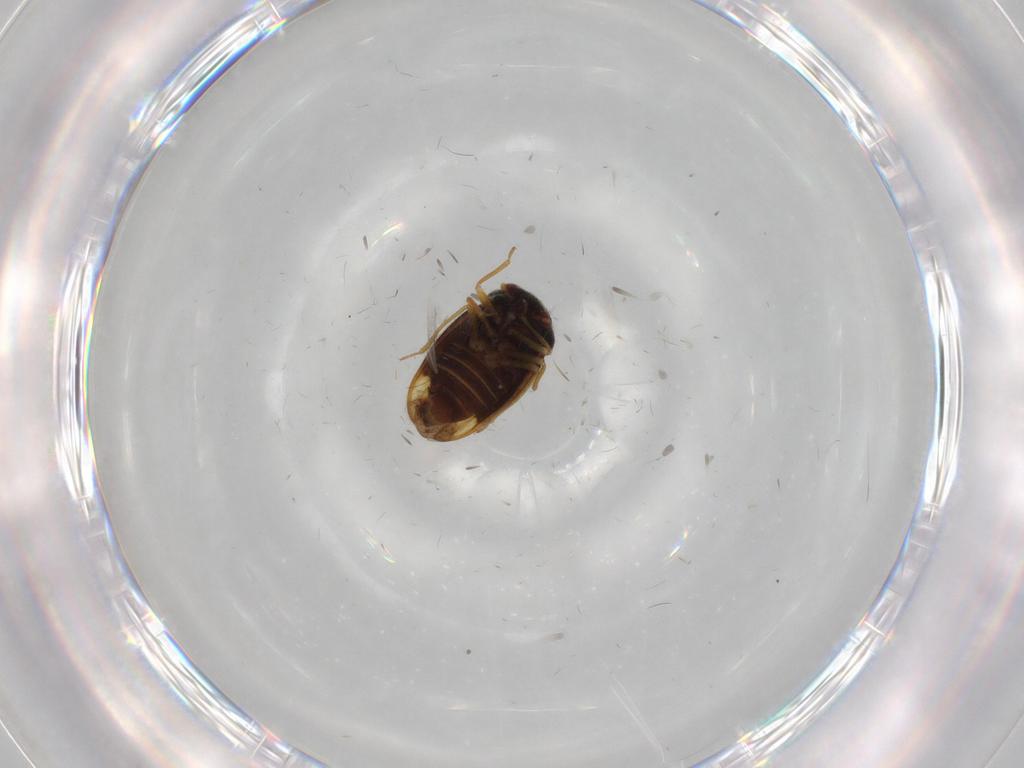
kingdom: Animalia
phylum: Arthropoda
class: Insecta
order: Hemiptera
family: Schizopteridae
